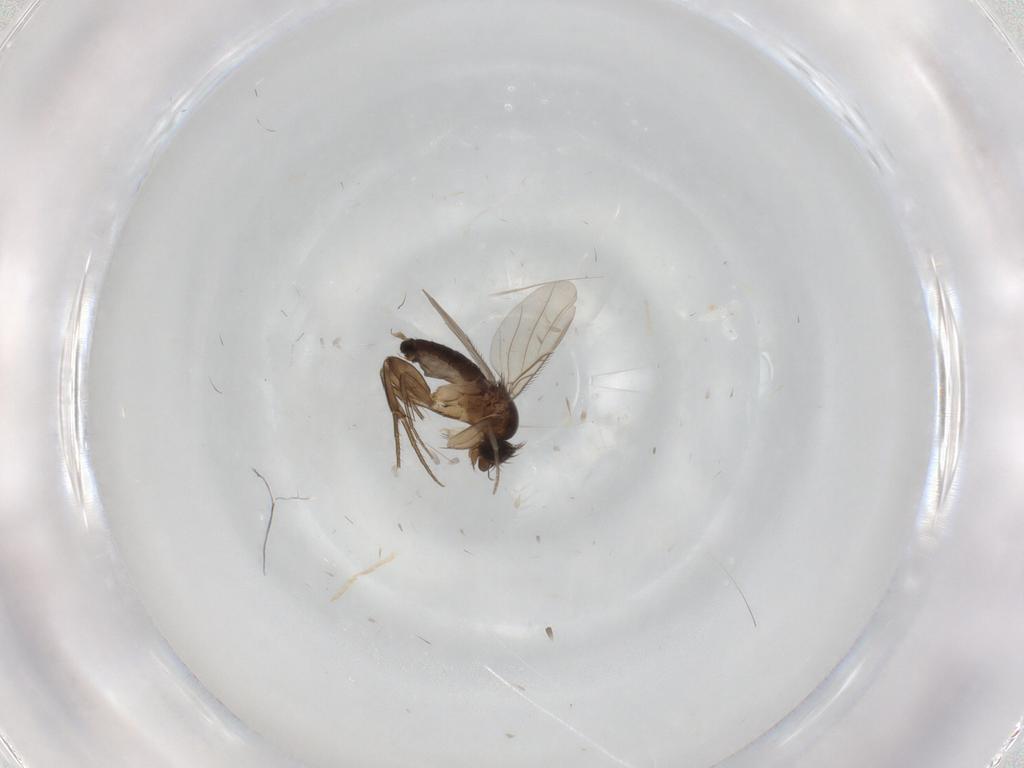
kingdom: Animalia
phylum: Arthropoda
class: Insecta
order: Diptera
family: Phoridae
